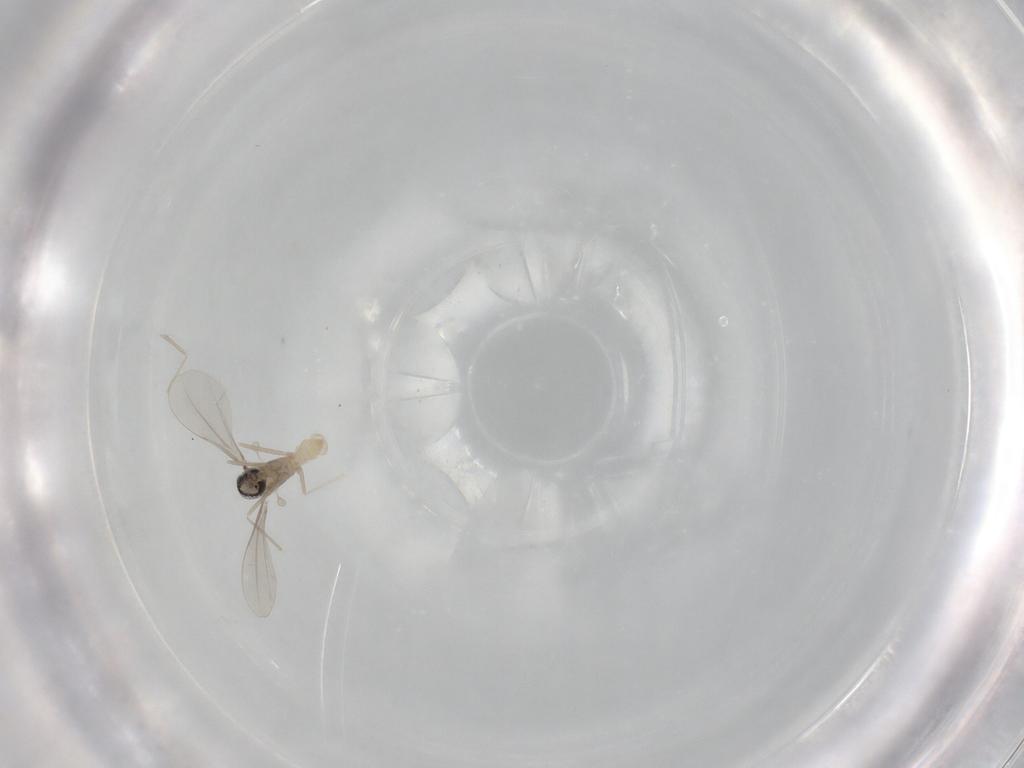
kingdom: Animalia
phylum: Arthropoda
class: Insecta
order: Diptera
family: Cecidomyiidae
